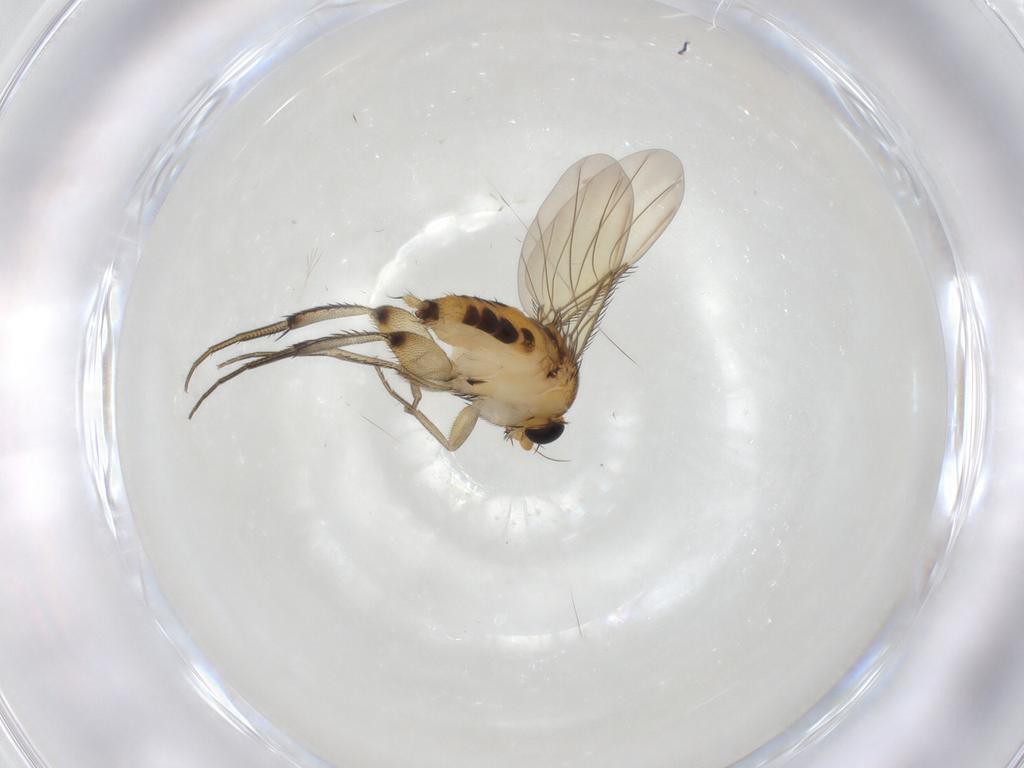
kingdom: Animalia
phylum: Arthropoda
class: Insecta
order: Diptera
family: Phoridae
